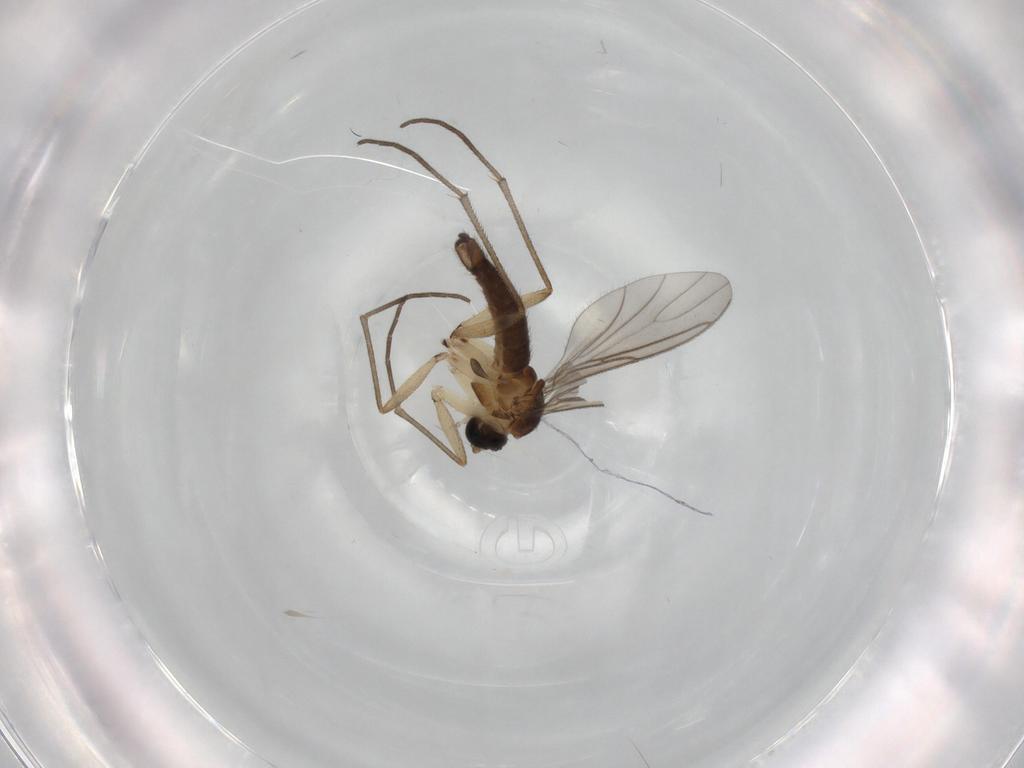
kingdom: Animalia
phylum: Arthropoda
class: Insecta
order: Diptera
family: Sciaridae
